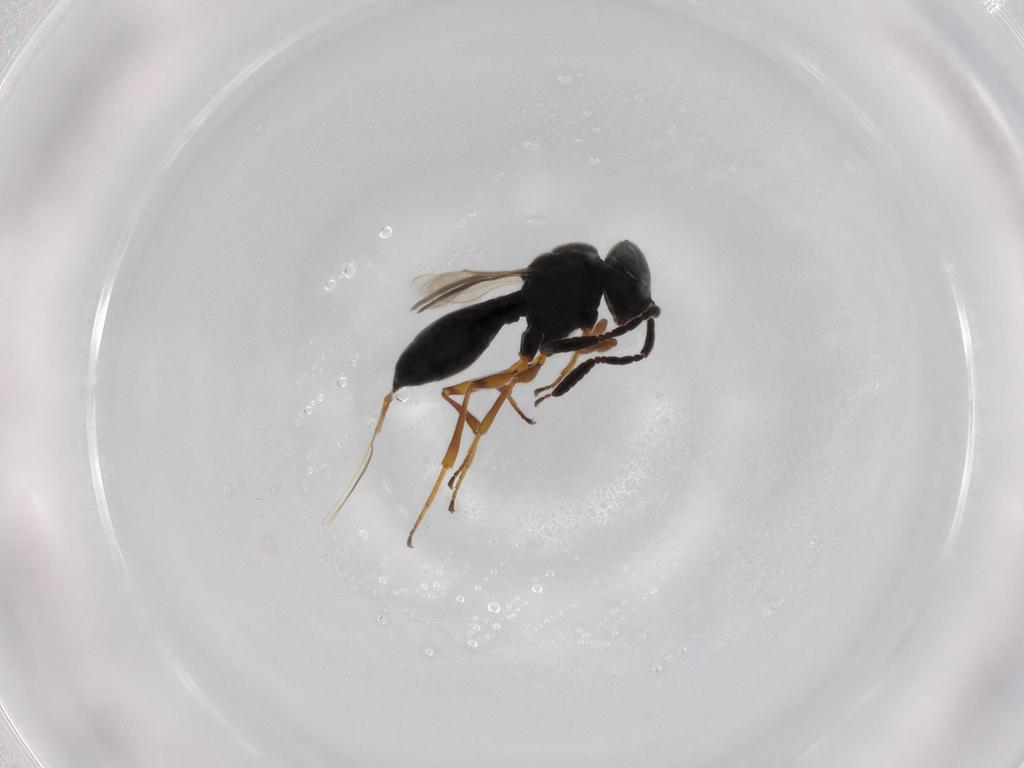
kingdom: Animalia
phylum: Arthropoda
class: Insecta
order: Hymenoptera
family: Scelionidae
